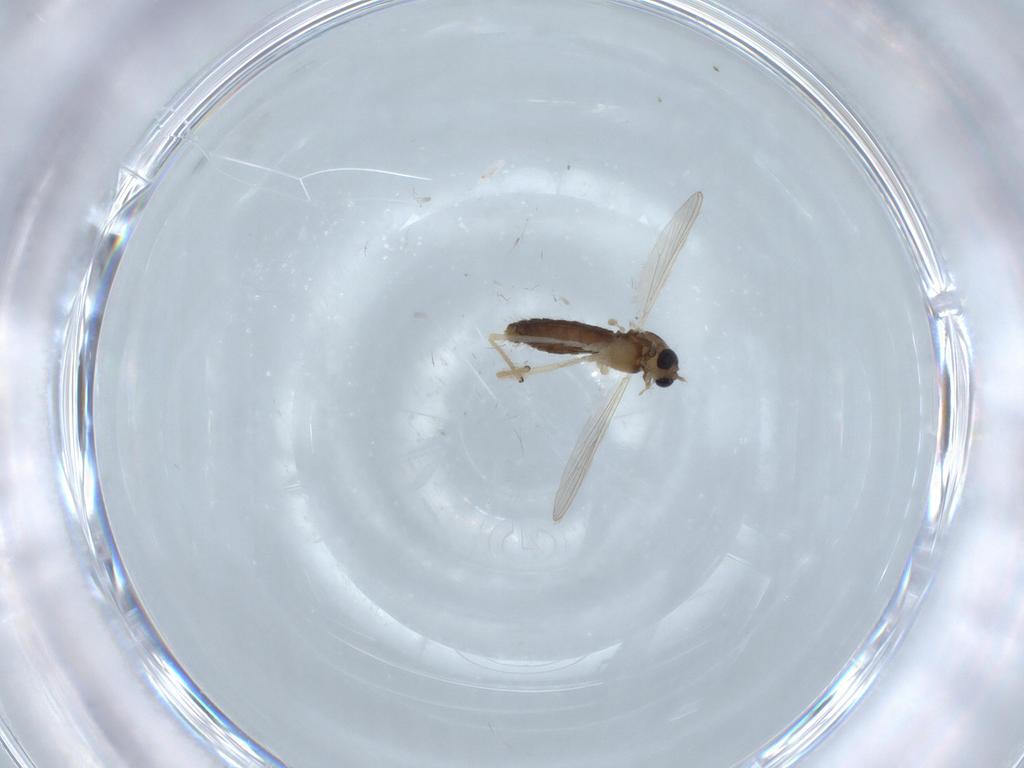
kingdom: Animalia
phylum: Arthropoda
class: Insecta
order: Diptera
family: Chironomidae
